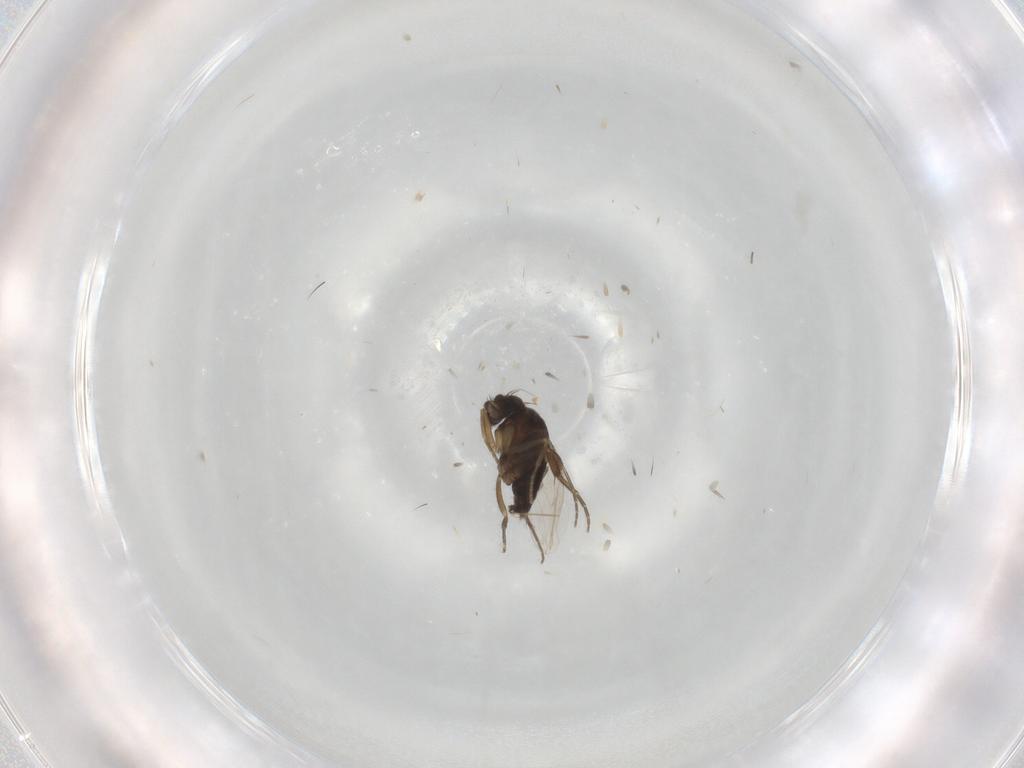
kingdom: Animalia
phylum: Arthropoda
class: Insecta
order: Diptera
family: Phoridae
